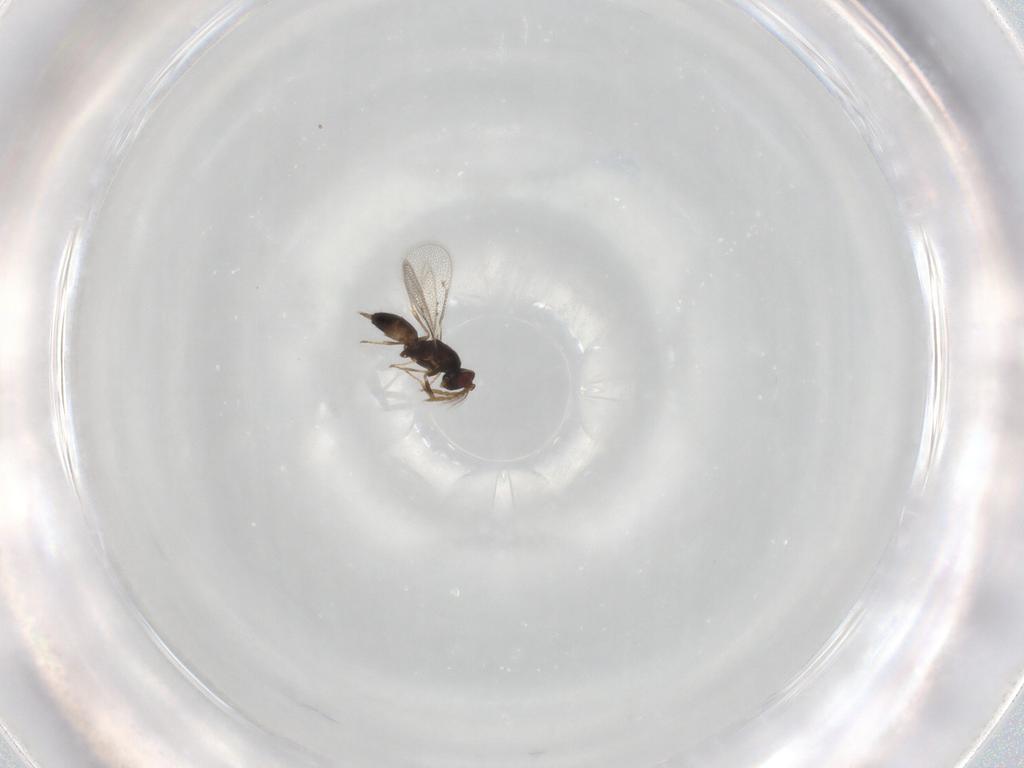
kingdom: Animalia
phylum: Arthropoda
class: Insecta
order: Hymenoptera
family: Eulophidae
